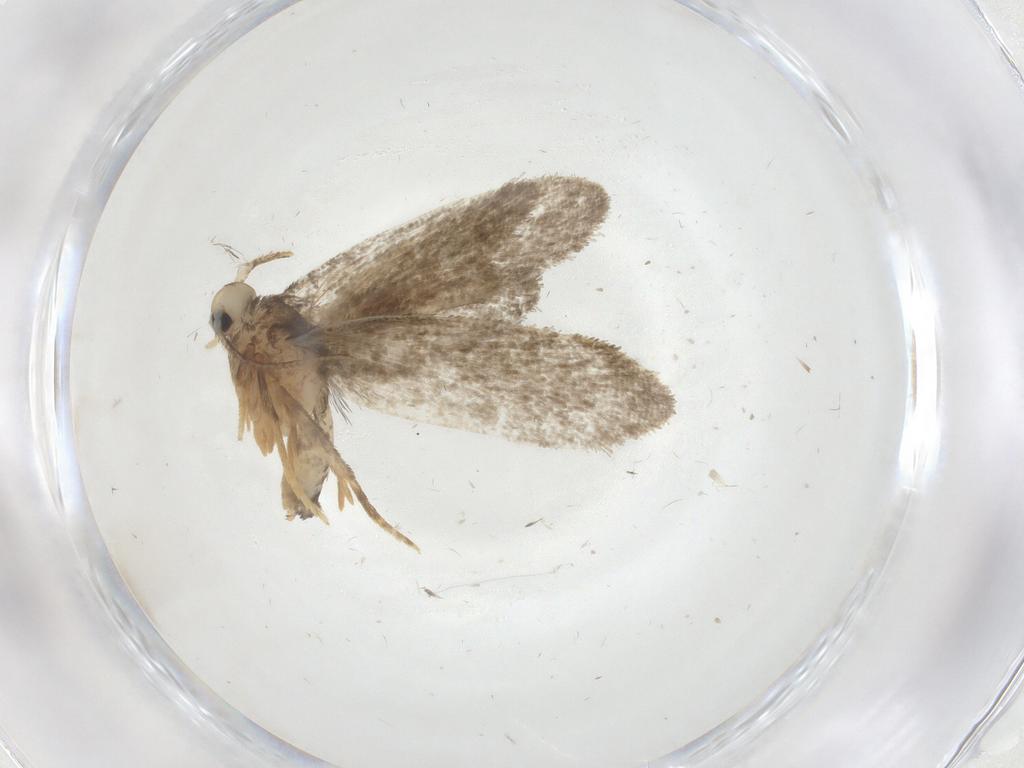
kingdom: Animalia
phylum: Arthropoda
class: Insecta
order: Lepidoptera
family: Psychidae
